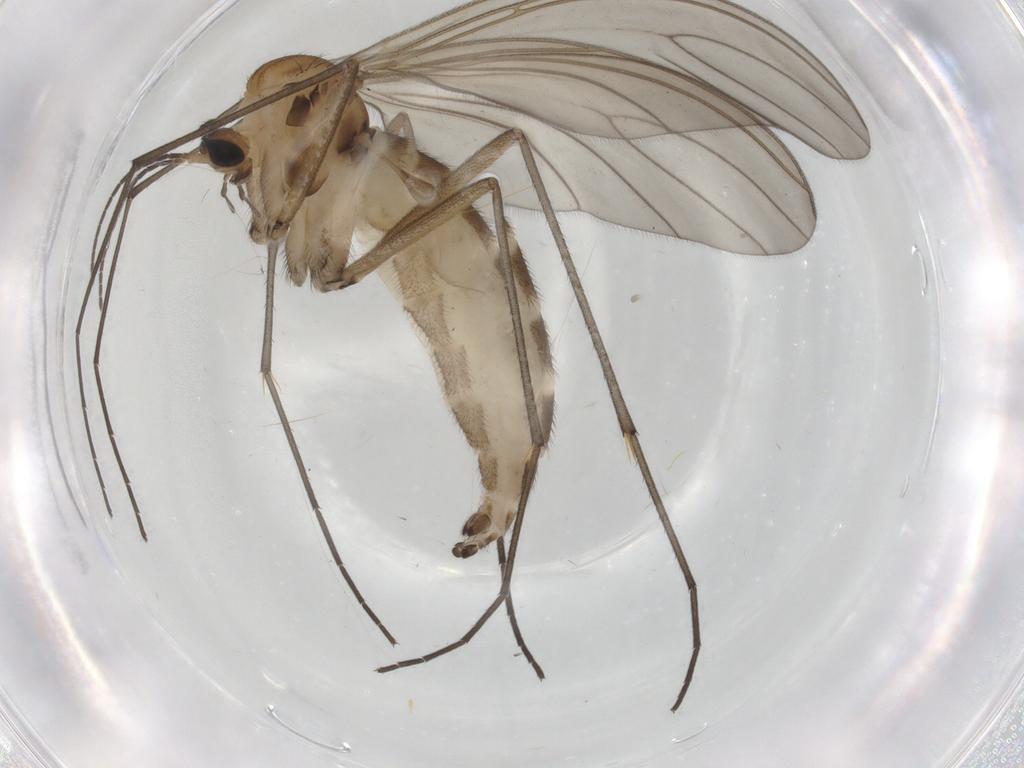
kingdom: Animalia
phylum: Arthropoda
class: Insecta
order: Diptera
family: Sciaridae
